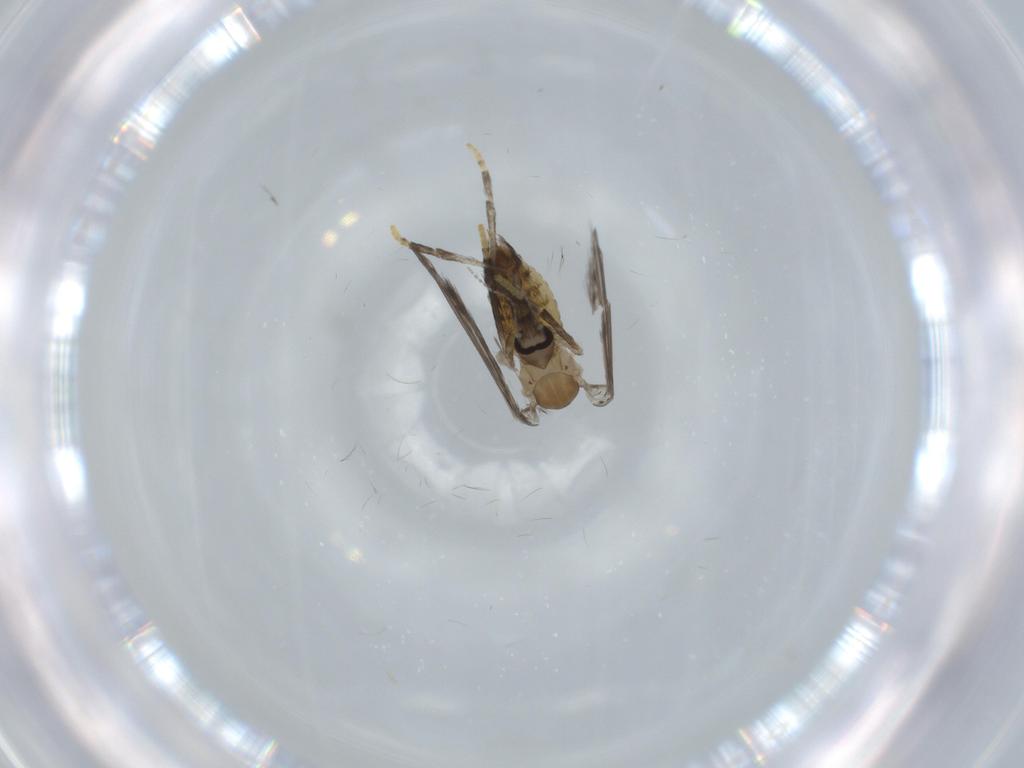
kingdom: Animalia
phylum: Arthropoda
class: Insecta
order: Diptera
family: Psychodidae
